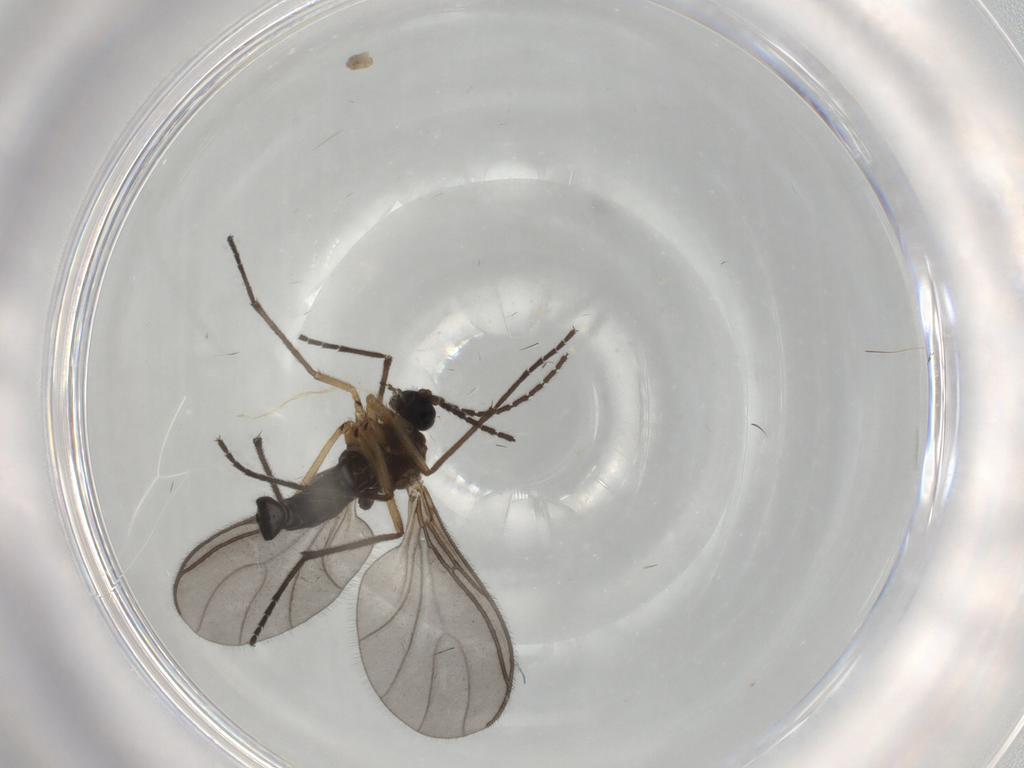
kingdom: Animalia
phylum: Arthropoda
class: Insecta
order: Diptera
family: Sciaridae
